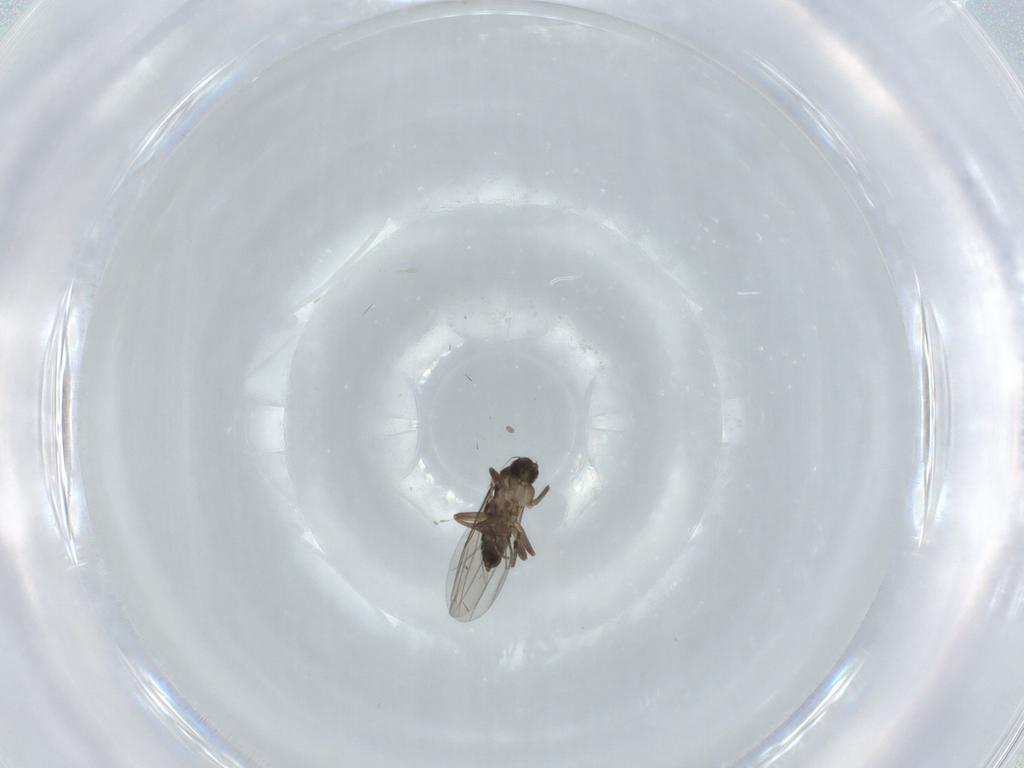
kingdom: Animalia
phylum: Arthropoda
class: Insecta
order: Diptera
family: Phoridae
